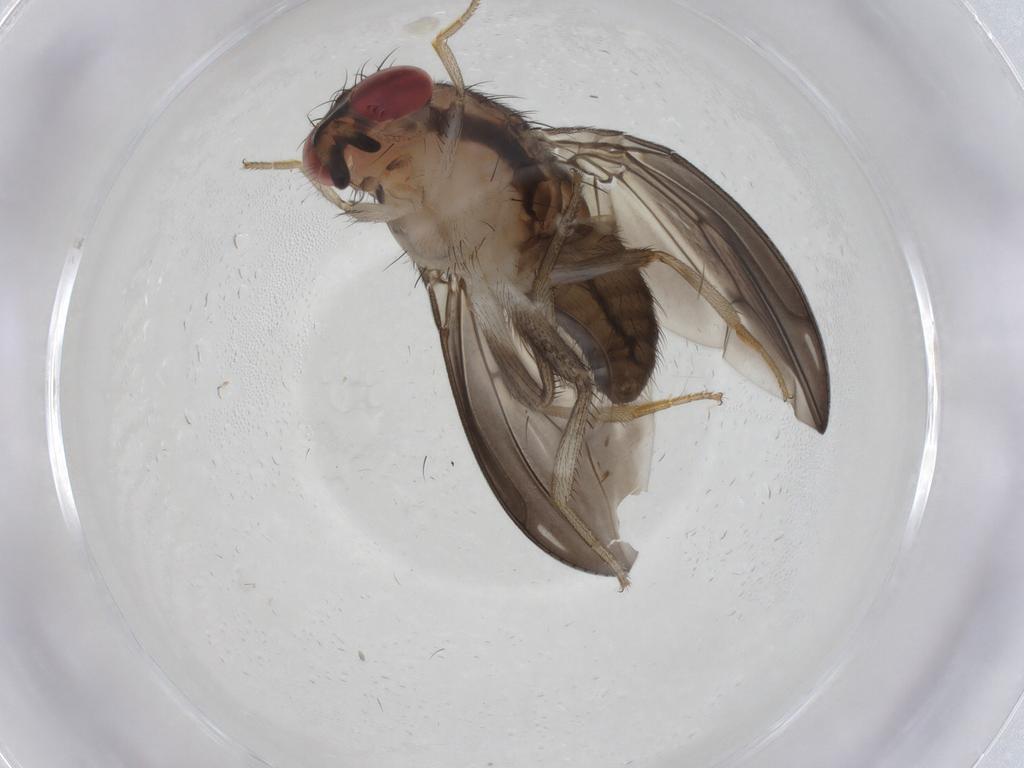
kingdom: Animalia
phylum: Arthropoda
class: Insecta
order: Diptera
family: Drosophilidae
